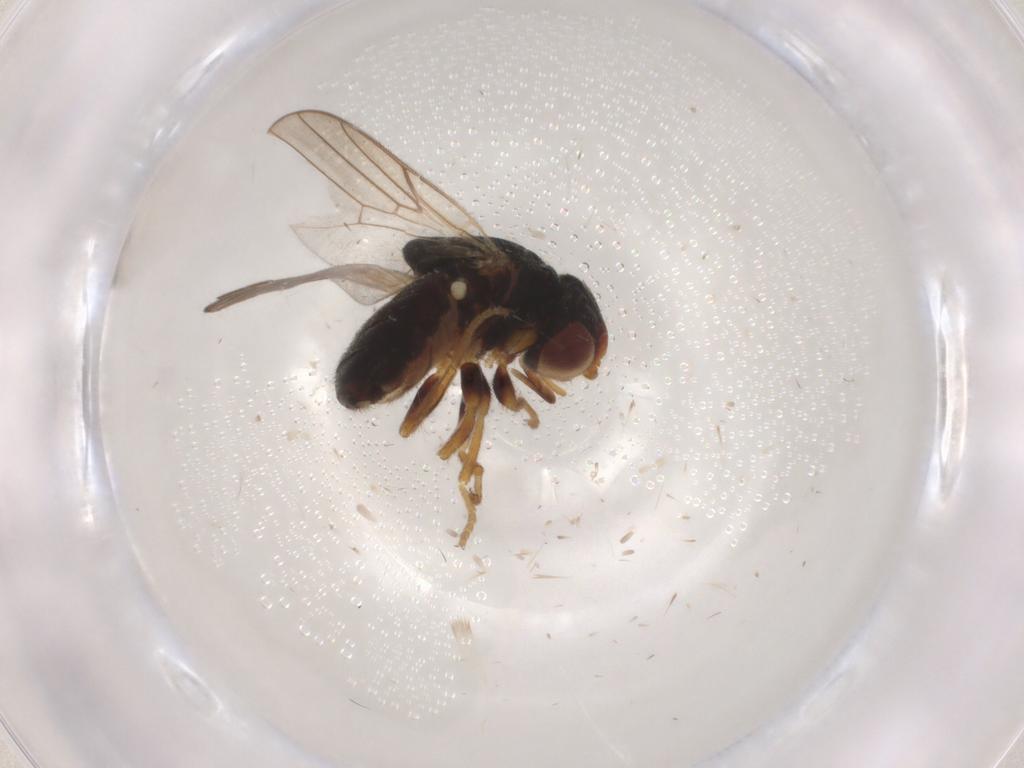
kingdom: Animalia
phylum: Arthropoda
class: Insecta
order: Diptera
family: Chloropidae
